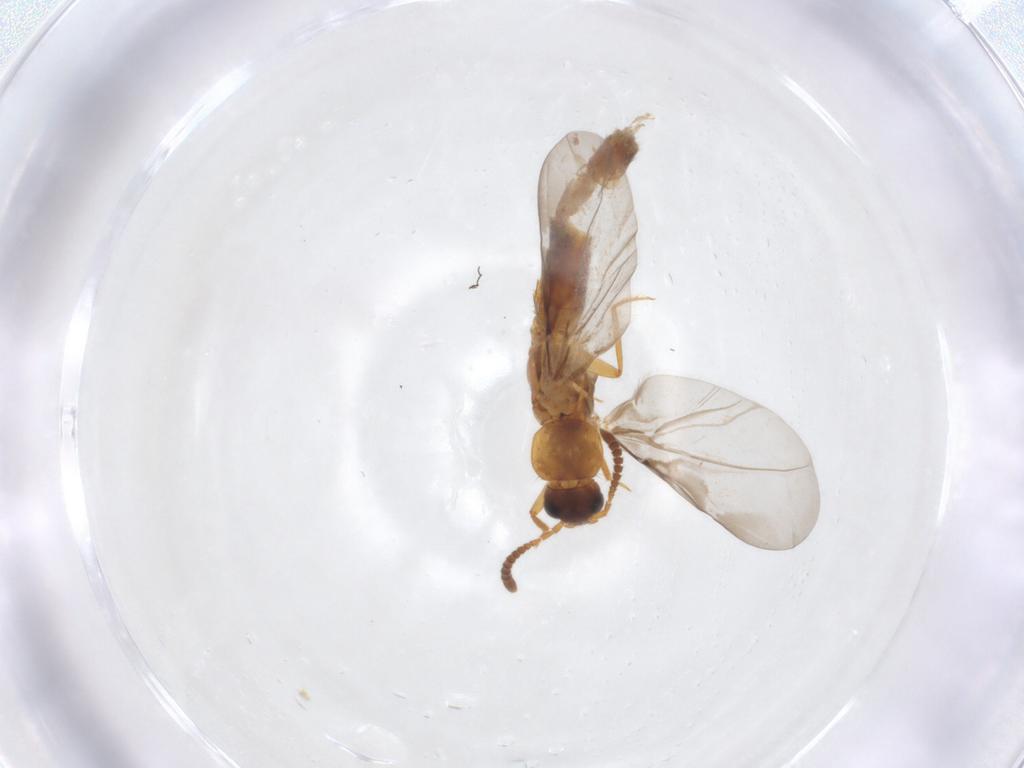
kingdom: Animalia
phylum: Arthropoda
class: Insecta
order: Coleoptera
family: Staphylinidae
